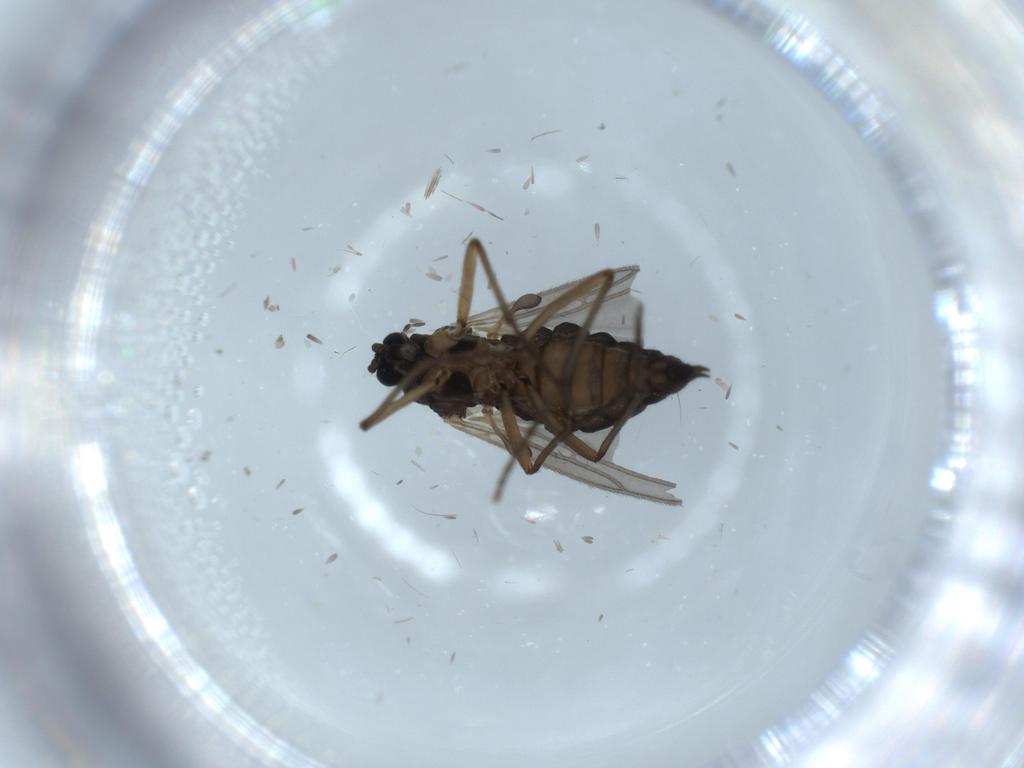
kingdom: Animalia
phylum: Arthropoda
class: Insecta
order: Diptera
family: Sciaridae
